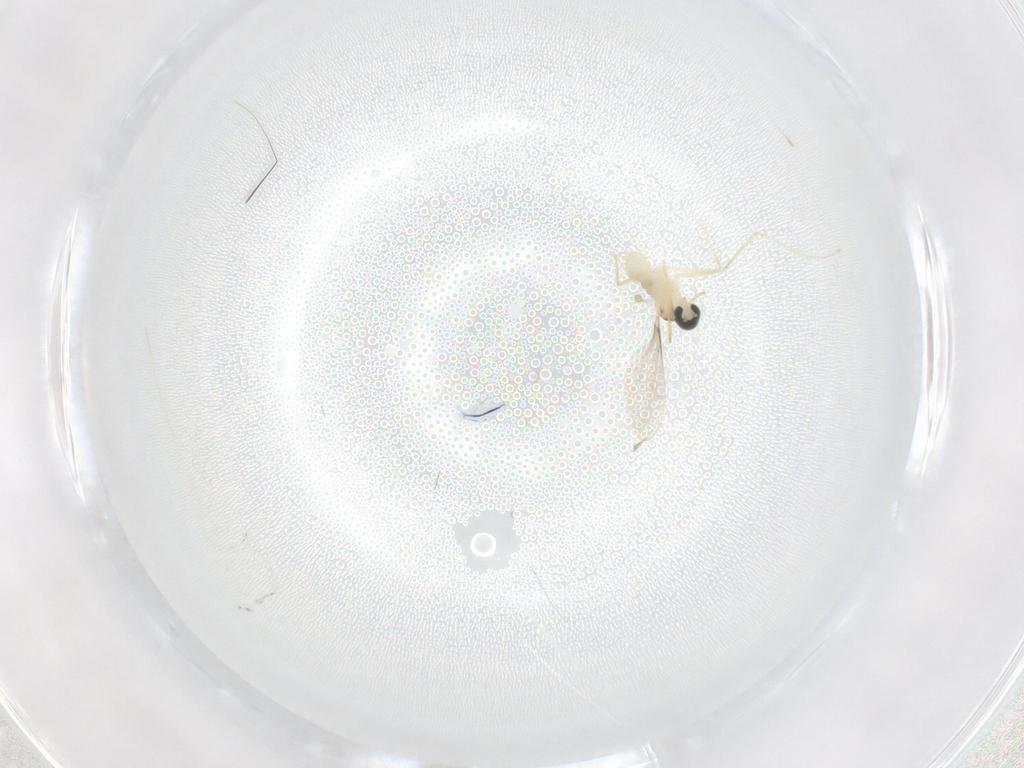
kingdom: Animalia
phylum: Arthropoda
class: Insecta
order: Diptera
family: Cecidomyiidae
